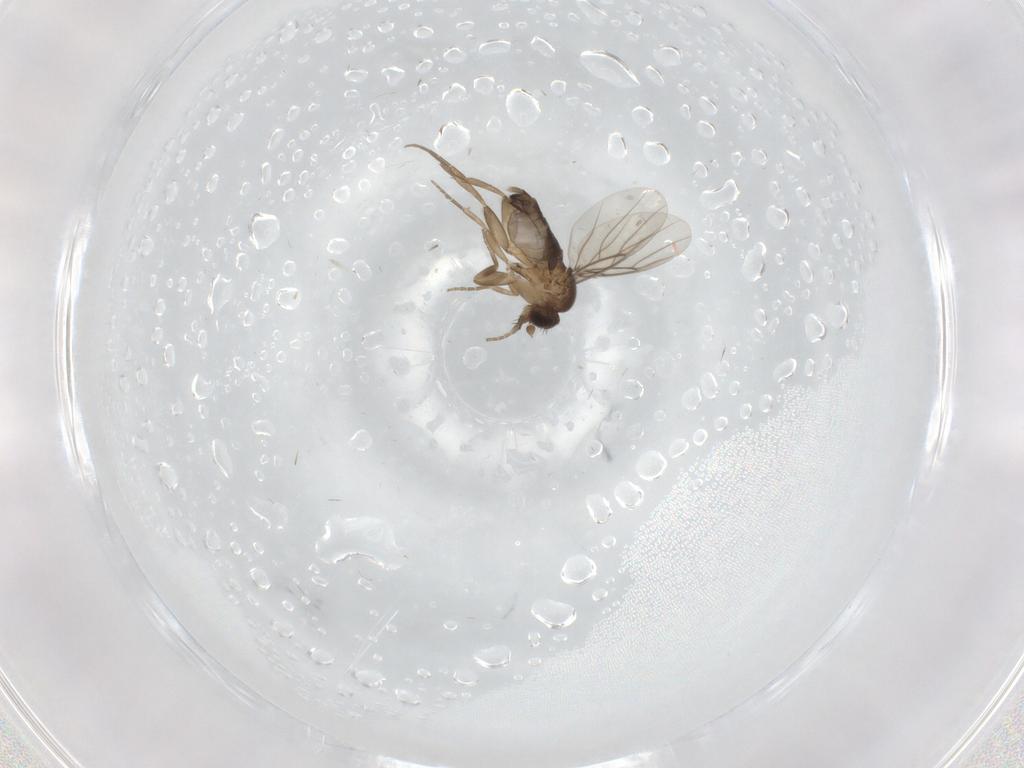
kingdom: Animalia
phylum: Arthropoda
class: Insecta
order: Diptera
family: Phoridae
